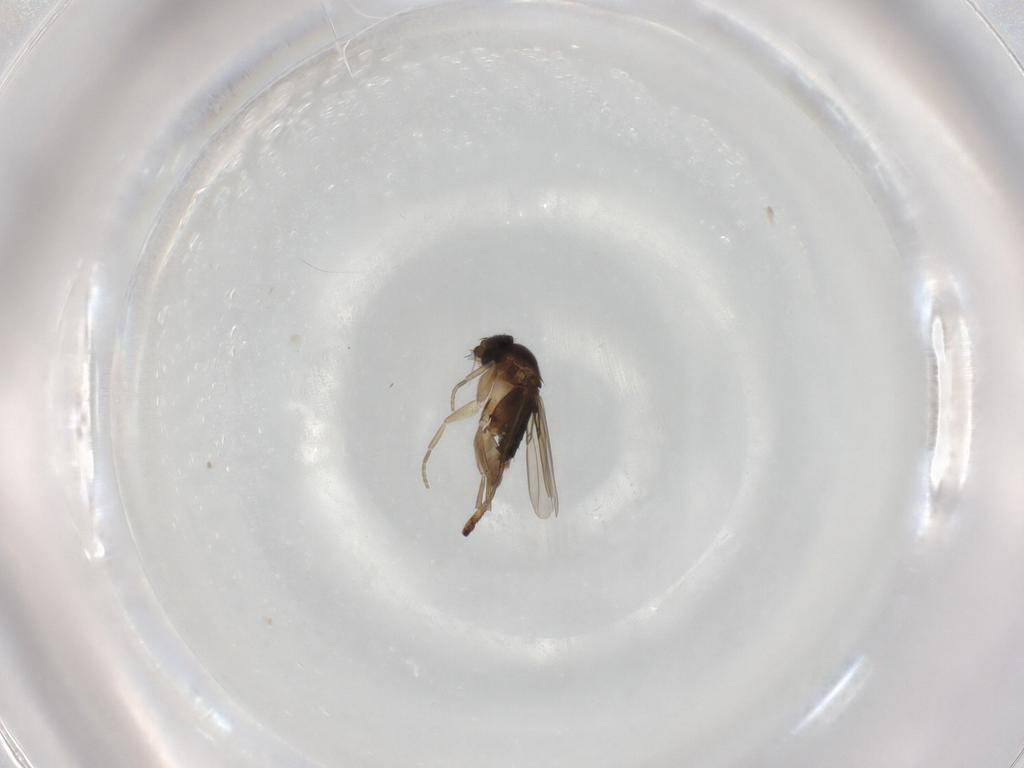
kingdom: Animalia
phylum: Arthropoda
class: Insecta
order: Diptera
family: Phoridae
